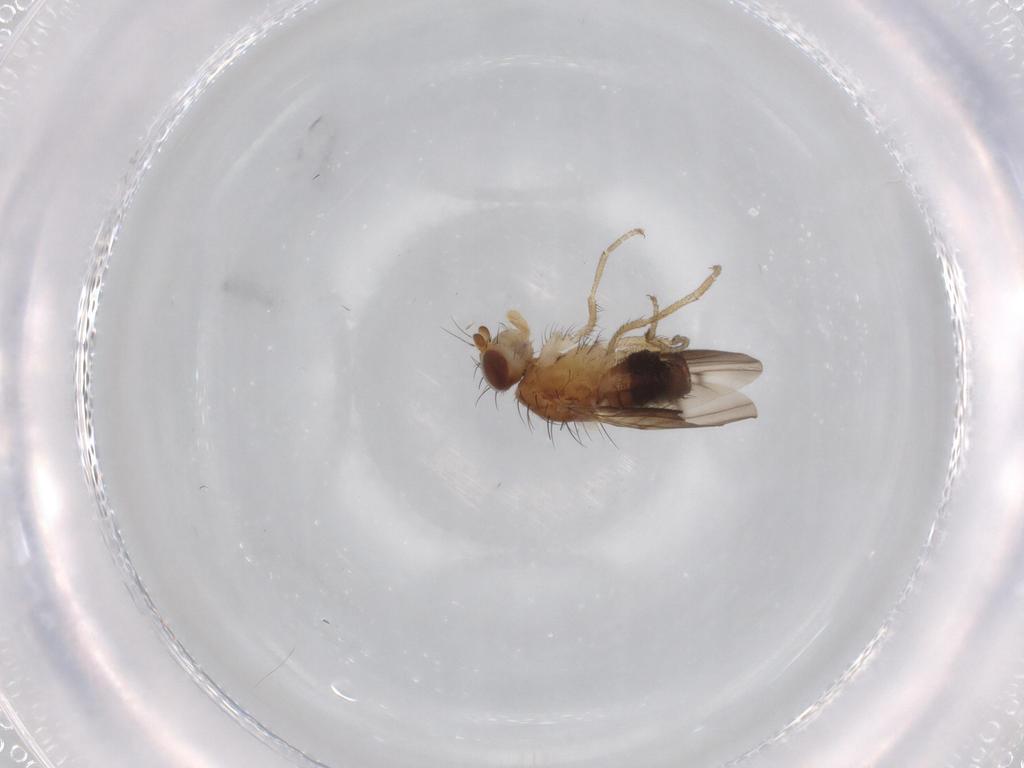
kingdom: Animalia
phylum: Arthropoda
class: Insecta
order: Diptera
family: Heleomyzidae
